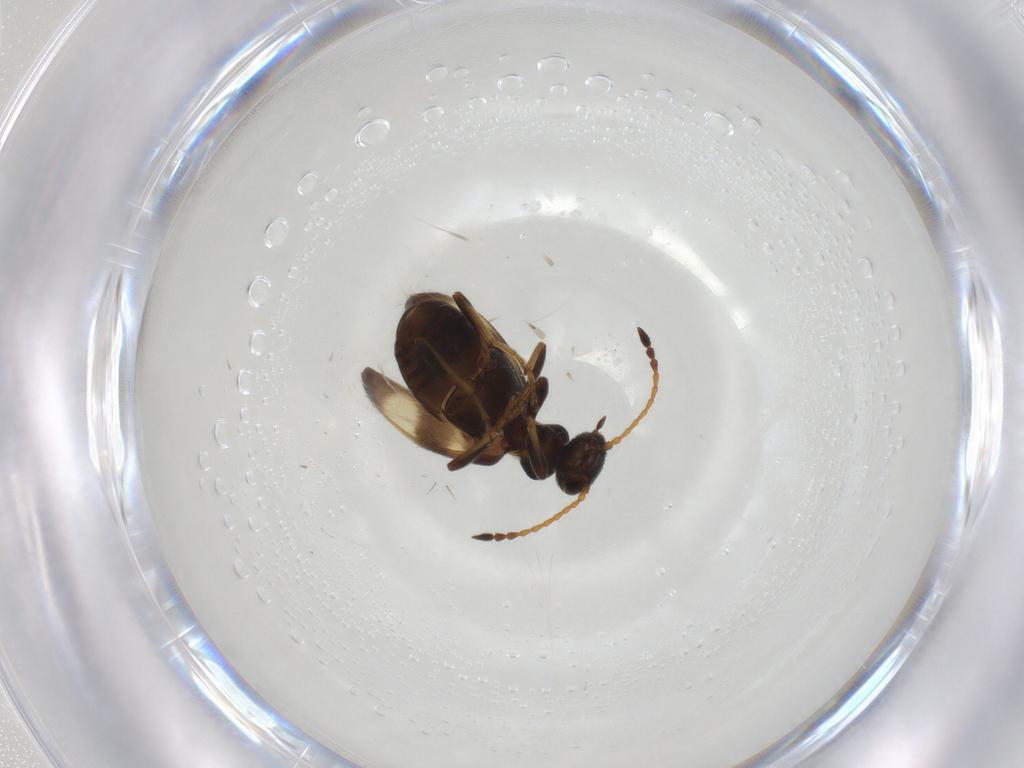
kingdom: Animalia
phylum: Arthropoda
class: Insecta
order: Coleoptera
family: Anthicidae
